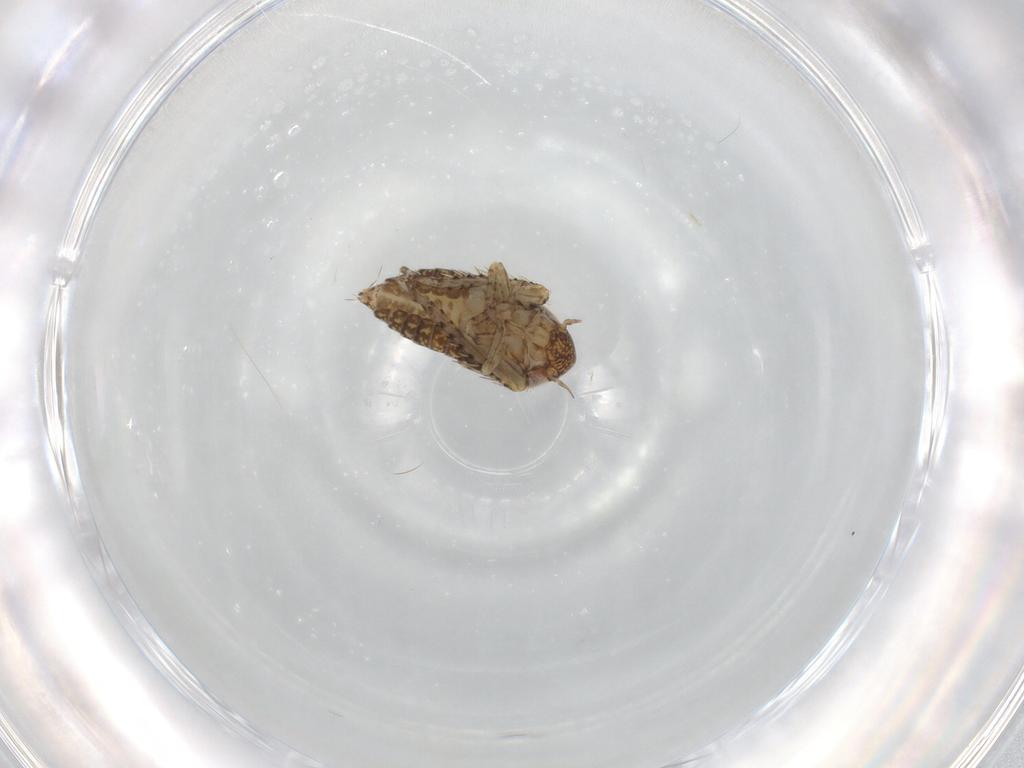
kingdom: Animalia
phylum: Arthropoda
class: Insecta
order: Hemiptera
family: Cicadellidae
